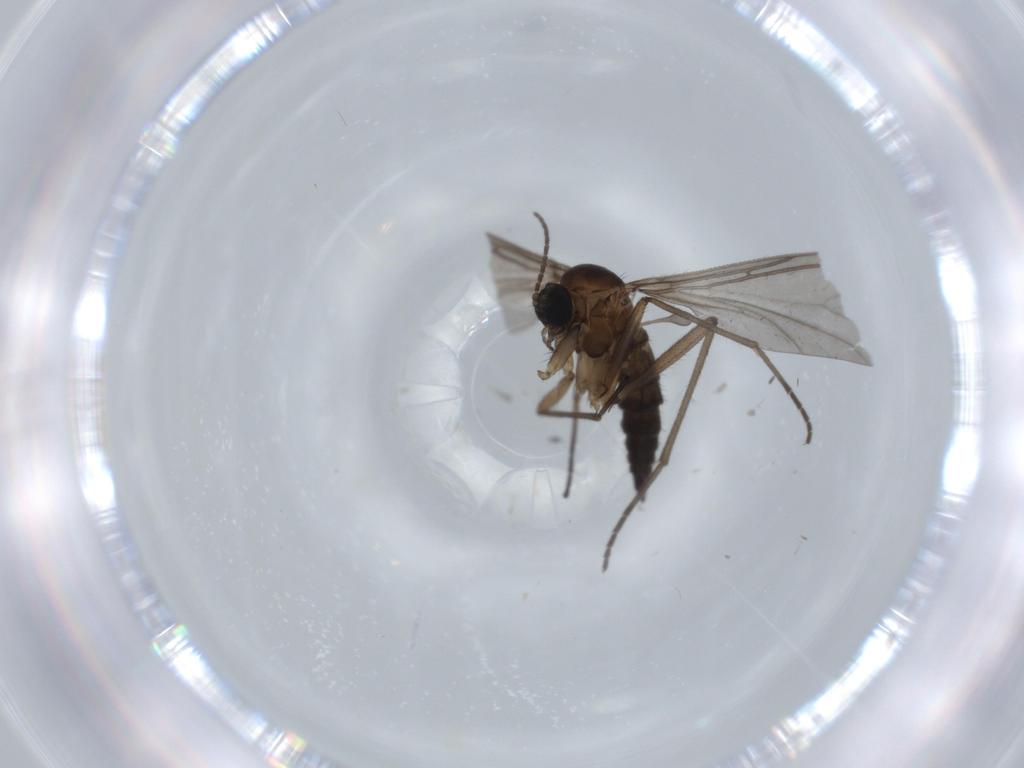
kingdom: Animalia
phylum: Arthropoda
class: Insecta
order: Diptera
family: Sciaridae
